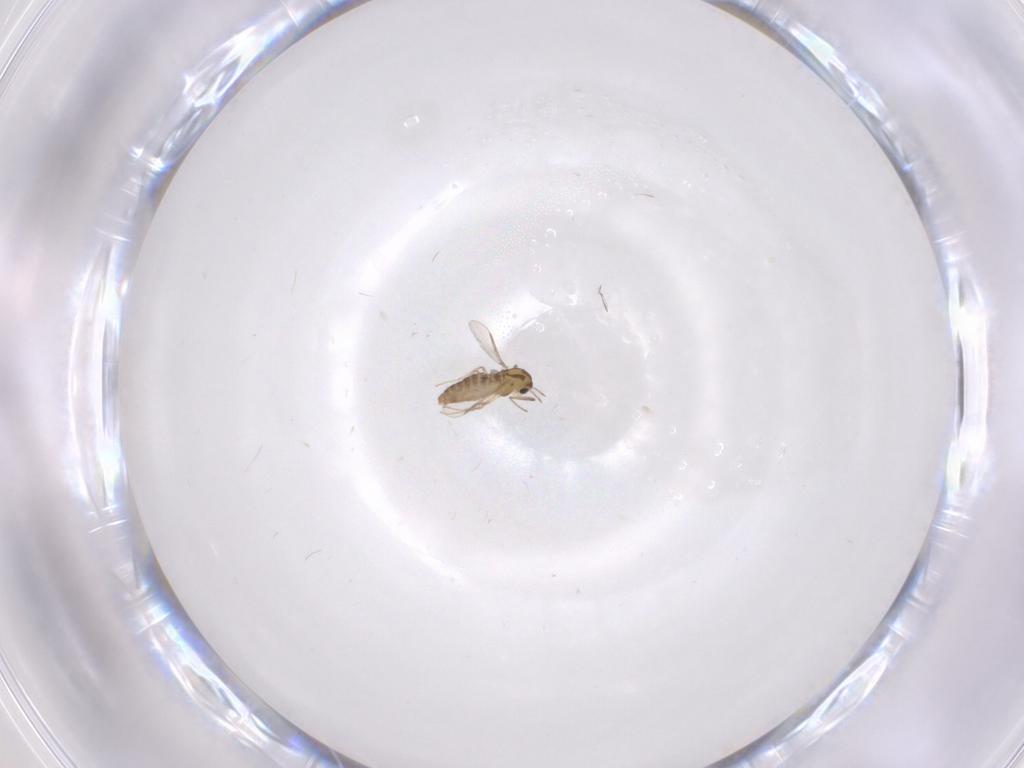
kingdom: Animalia
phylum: Arthropoda
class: Insecta
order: Diptera
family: Chironomidae
